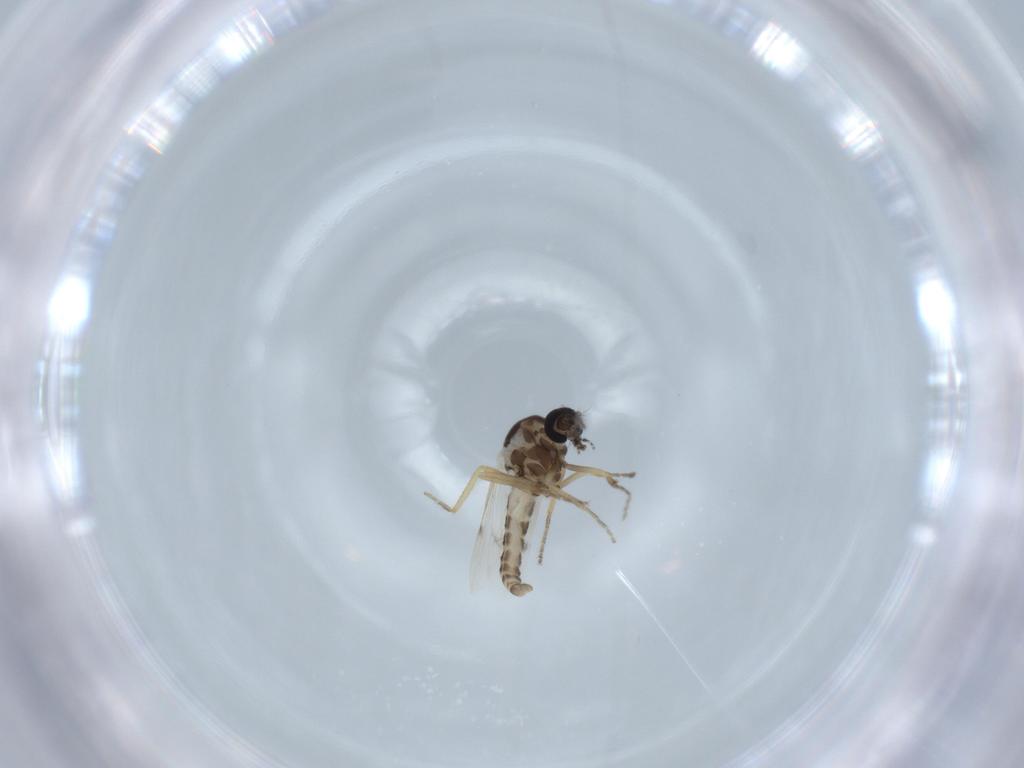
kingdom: Animalia
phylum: Arthropoda
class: Insecta
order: Diptera
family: Ceratopogonidae
